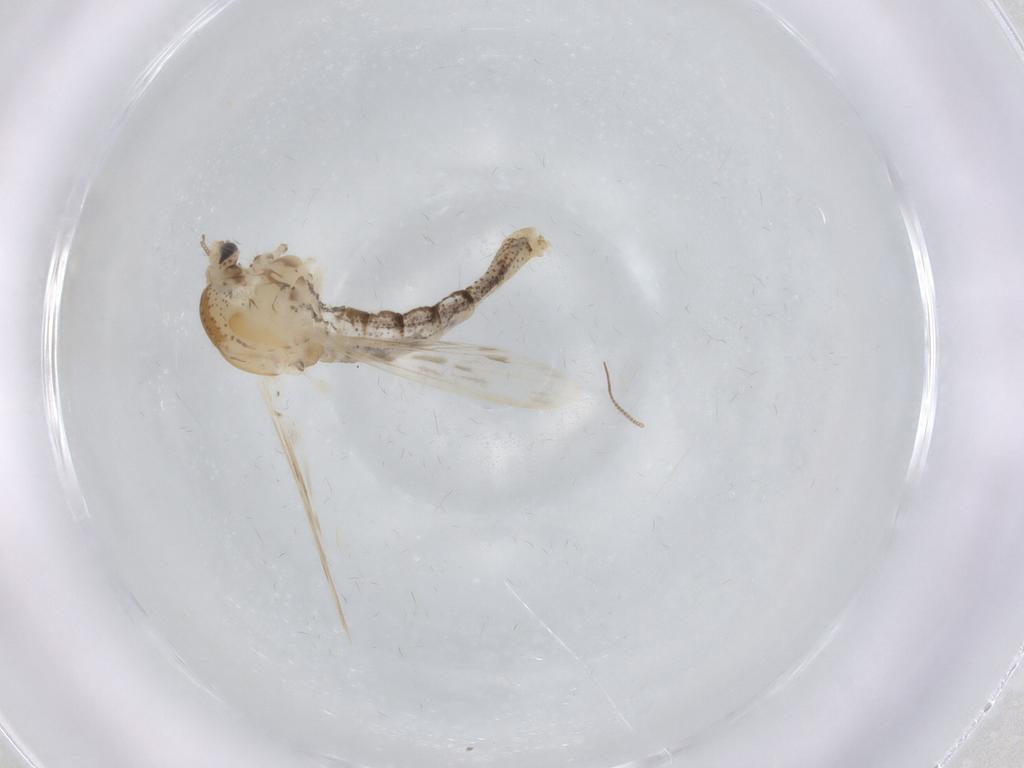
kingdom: Animalia
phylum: Arthropoda
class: Insecta
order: Diptera
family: Chaoboridae
